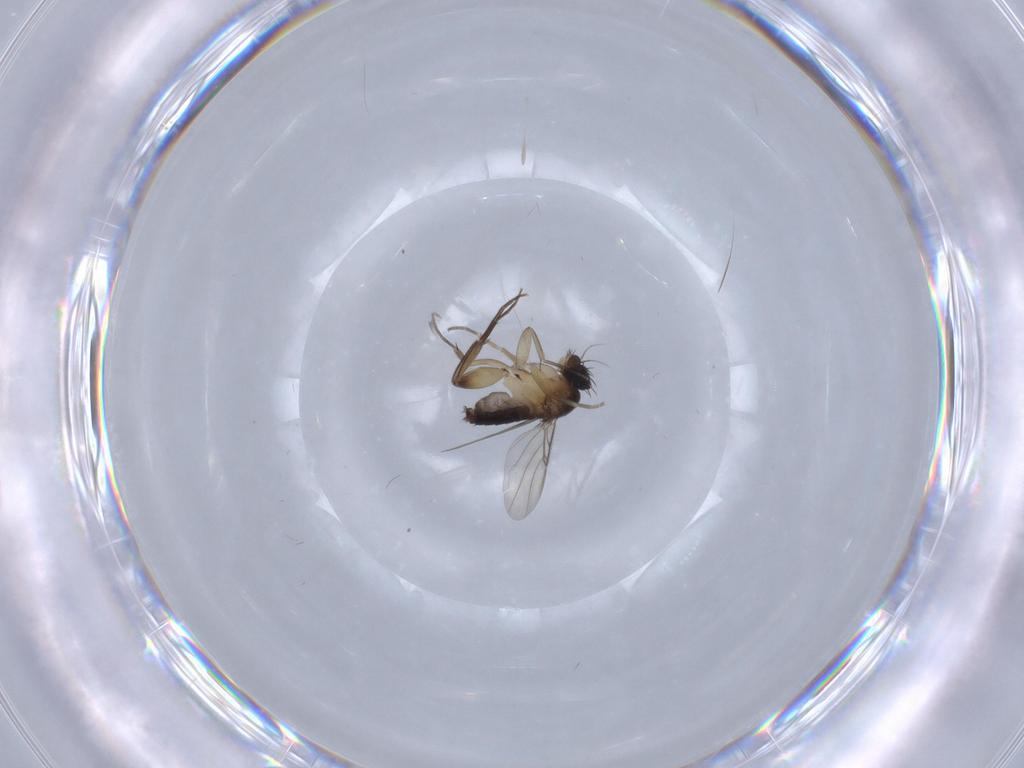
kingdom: Animalia
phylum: Arthropoda
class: Insecta
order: Diptera
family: Phoridae
